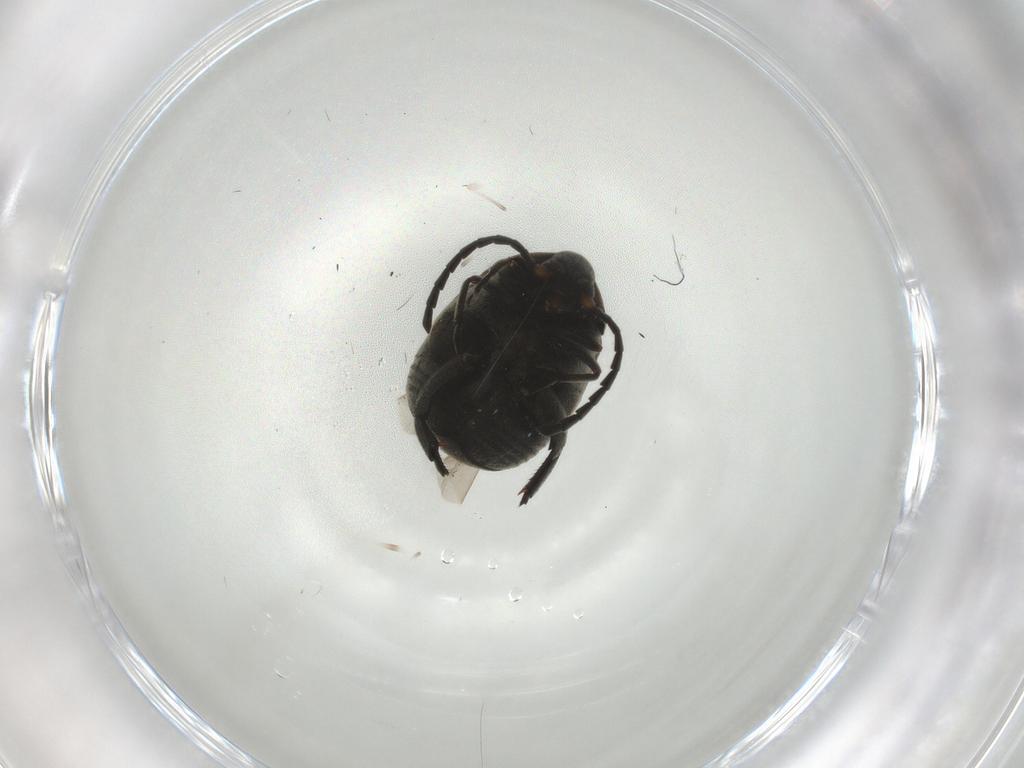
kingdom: Animalia
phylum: Arthropoda
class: Insecta
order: Coleoptera
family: Chrysomelidae
